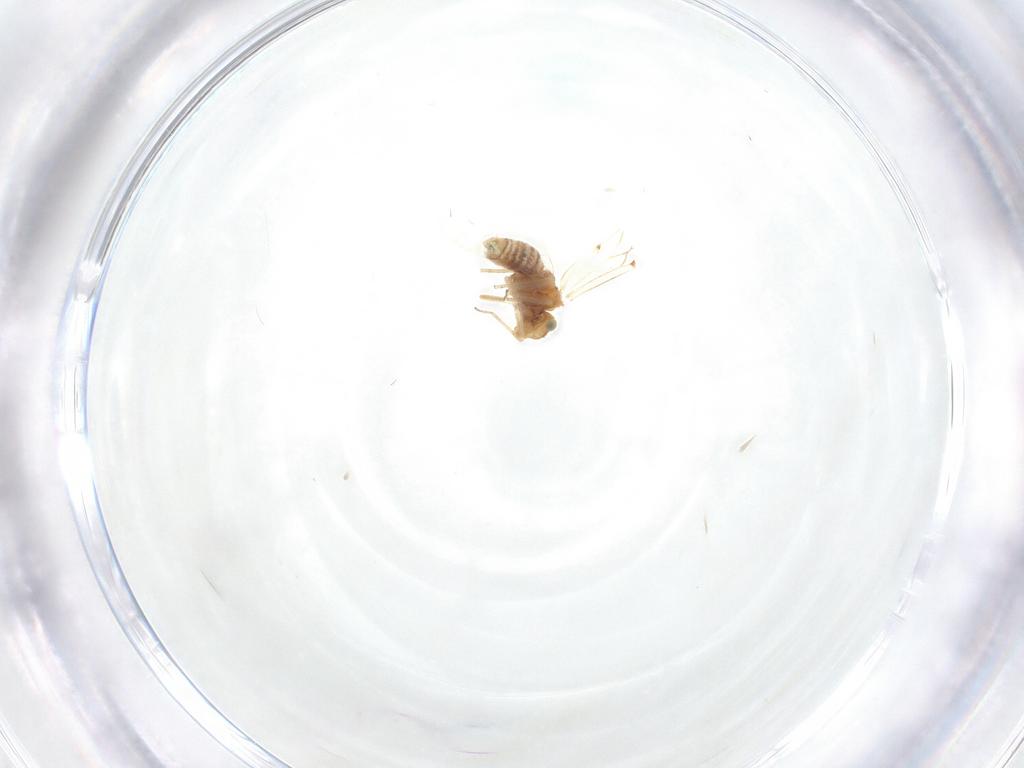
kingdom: Animalia
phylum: Arthropoda
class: Insecta
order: Psocodea
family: Lachesillidae
